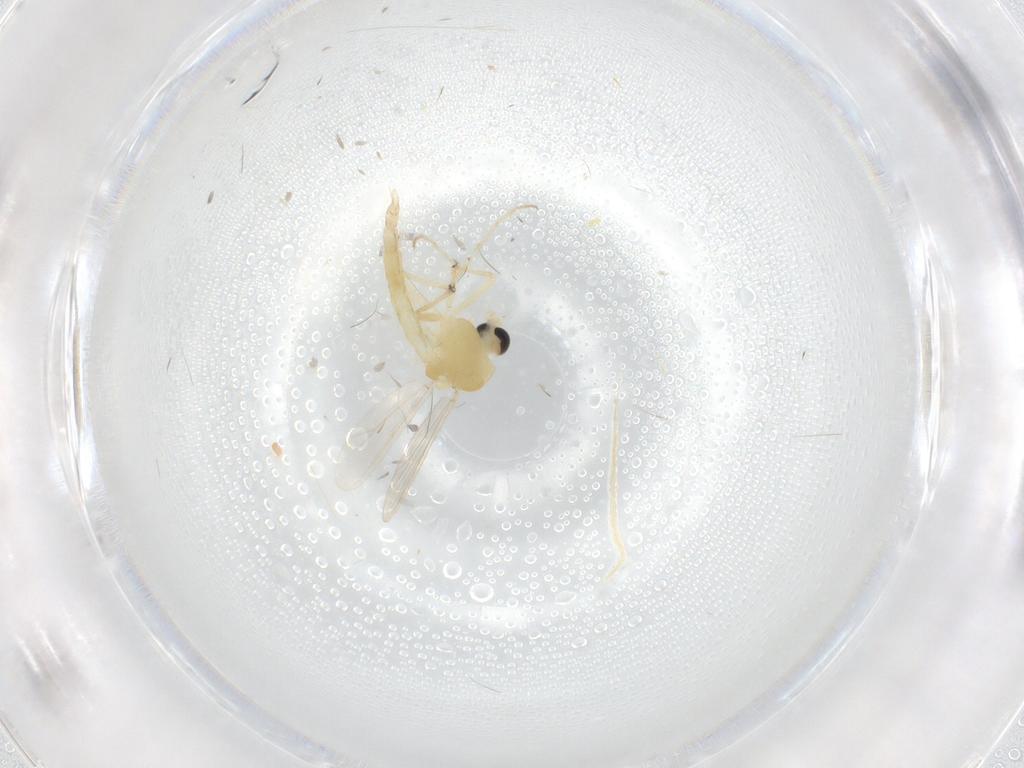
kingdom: Animalia
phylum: Arthropoda
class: Insecta
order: Diptera
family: Chironomidae
